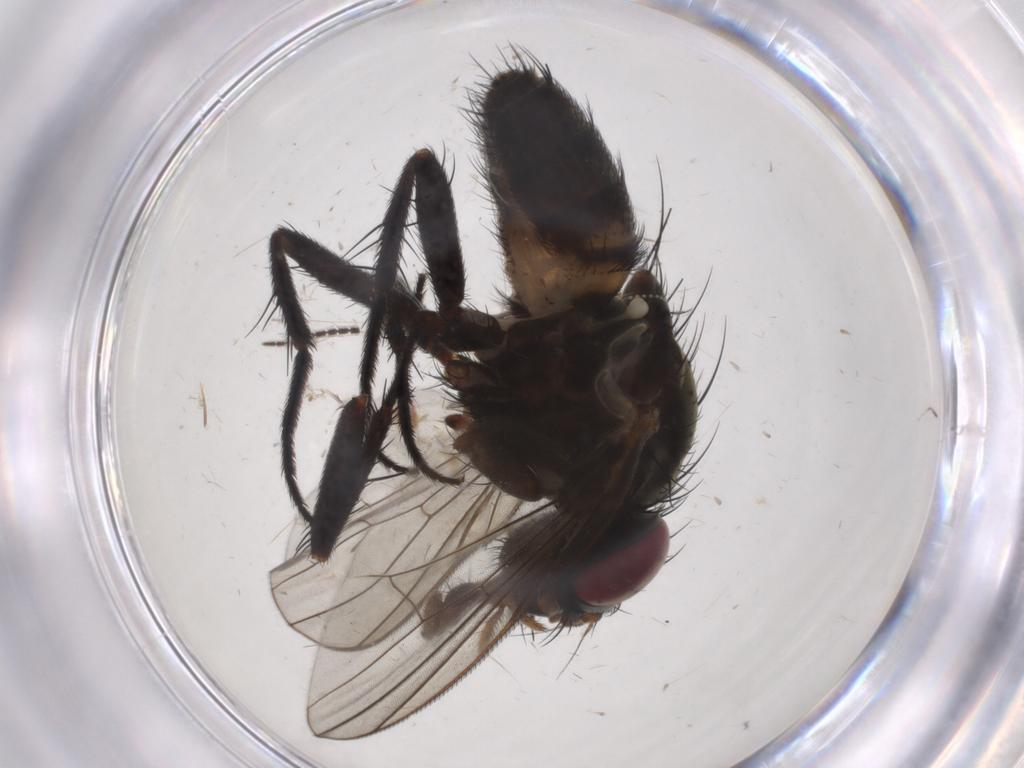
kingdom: Animalia
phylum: Arthropoda
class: Insecta
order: Diptera
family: Fanniidae
